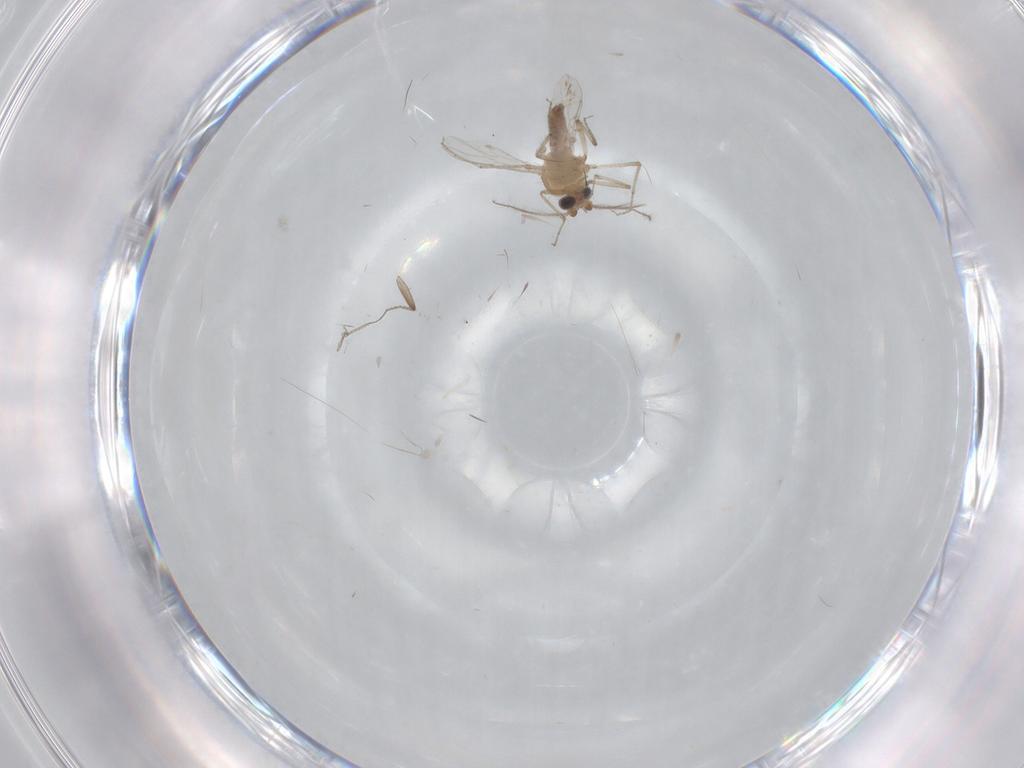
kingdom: Animalia
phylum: Arthropoda
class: Insecta
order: Diptera
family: Ceratopogonidae
